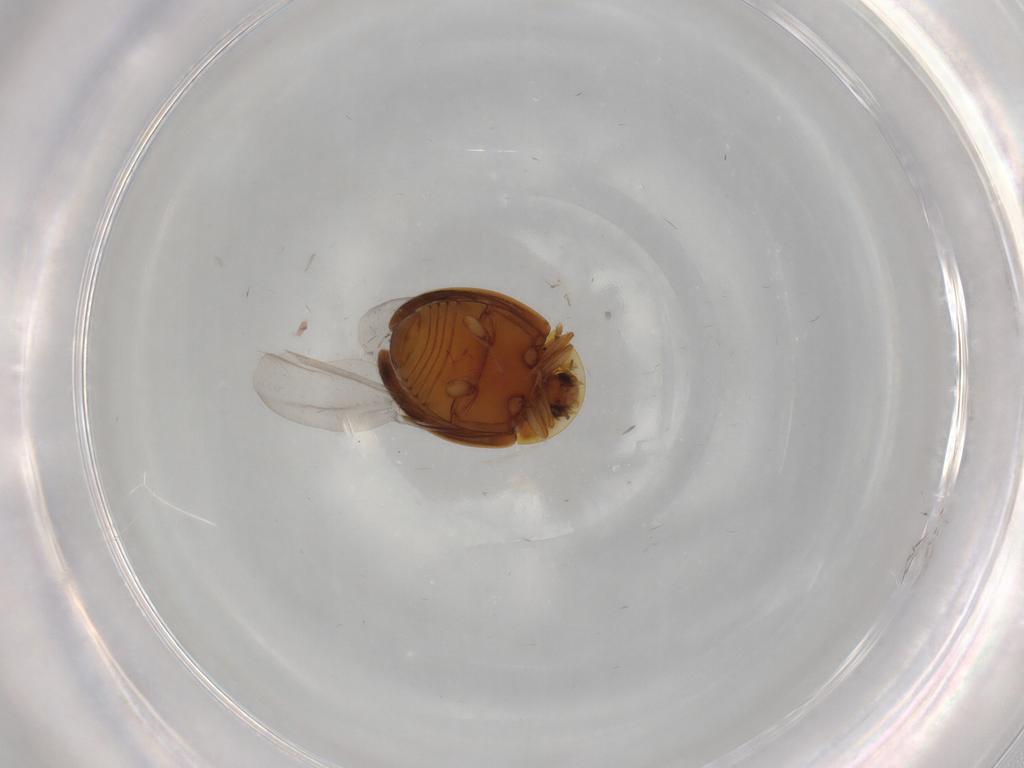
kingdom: Animalia
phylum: Arthropoda
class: Insecta
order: Coleoptera
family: Corylophidae
